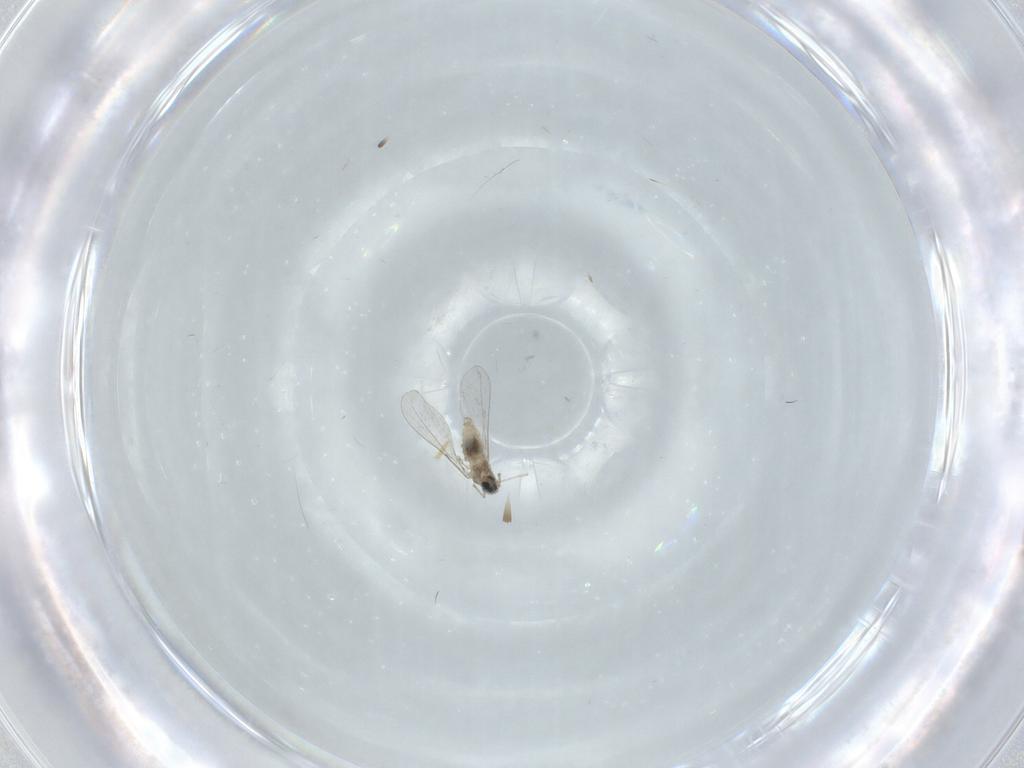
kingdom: Animalia
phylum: Arthropoda
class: Insecta
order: Diptera
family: Cecidomyiidae
